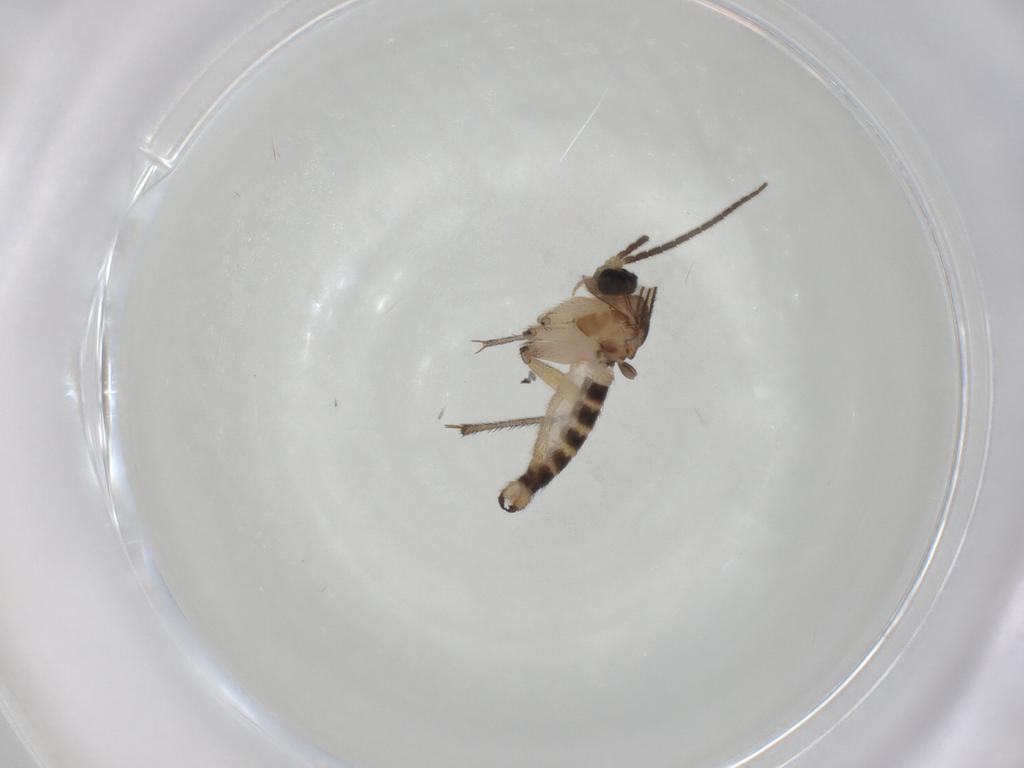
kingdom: Animalia
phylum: Arthropoda
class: Insecta
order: Diptera
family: Sciaridae
